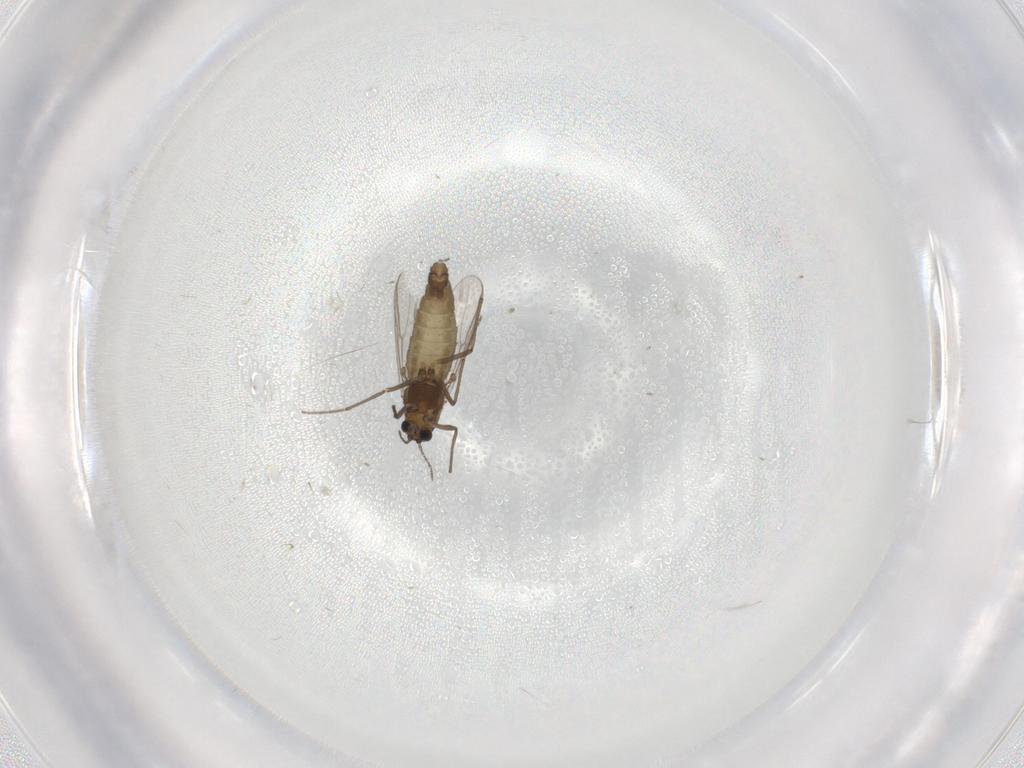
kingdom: Animalia
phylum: Arthropoda
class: Insecta
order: Diptera
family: Chironomidae
